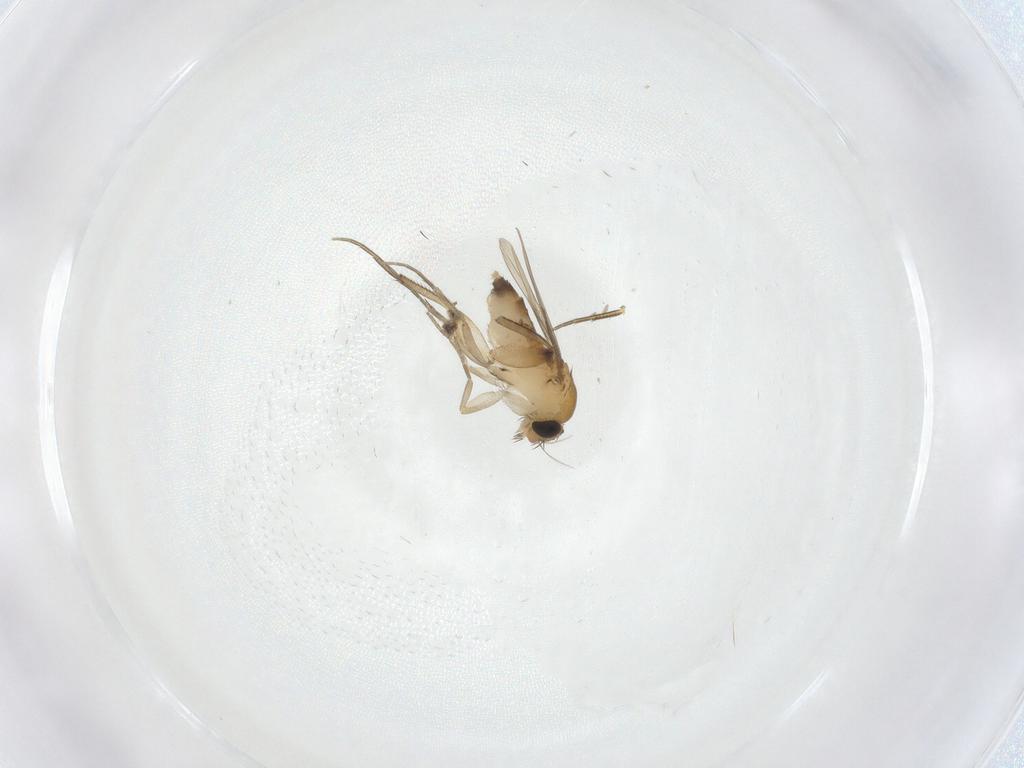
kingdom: Animalia
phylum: Arthropoda
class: Insecta
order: Diptera
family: Phoridae
